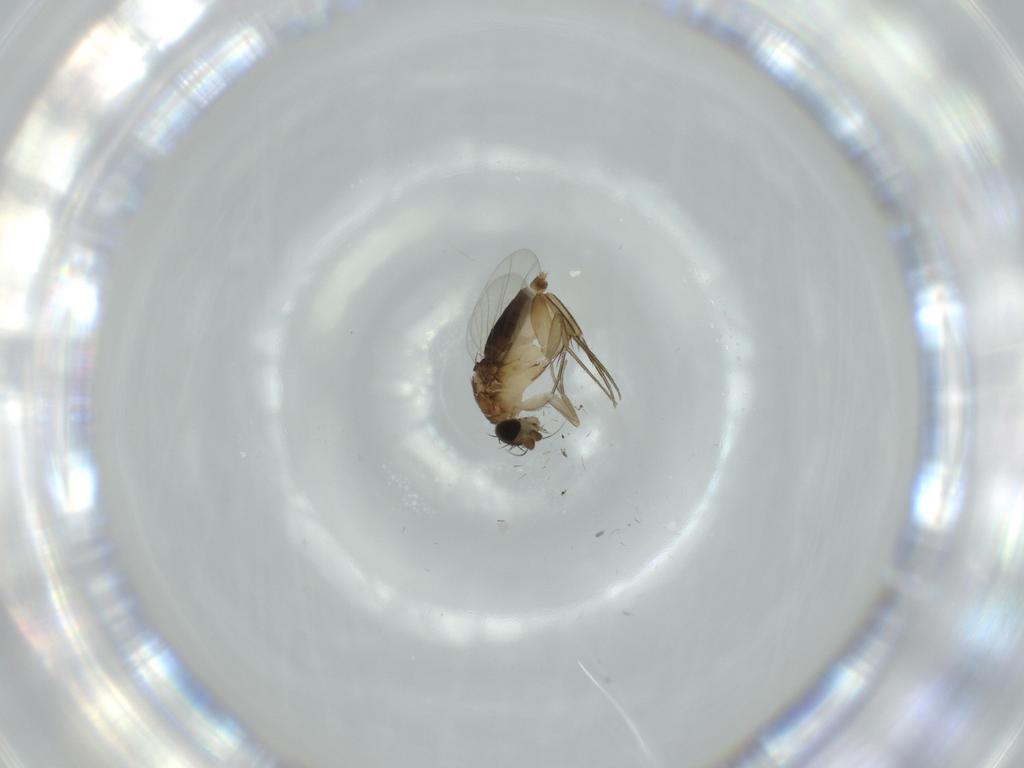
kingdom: Animalia
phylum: Arthropoda
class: Insecta
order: Diptera
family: Phoridae
